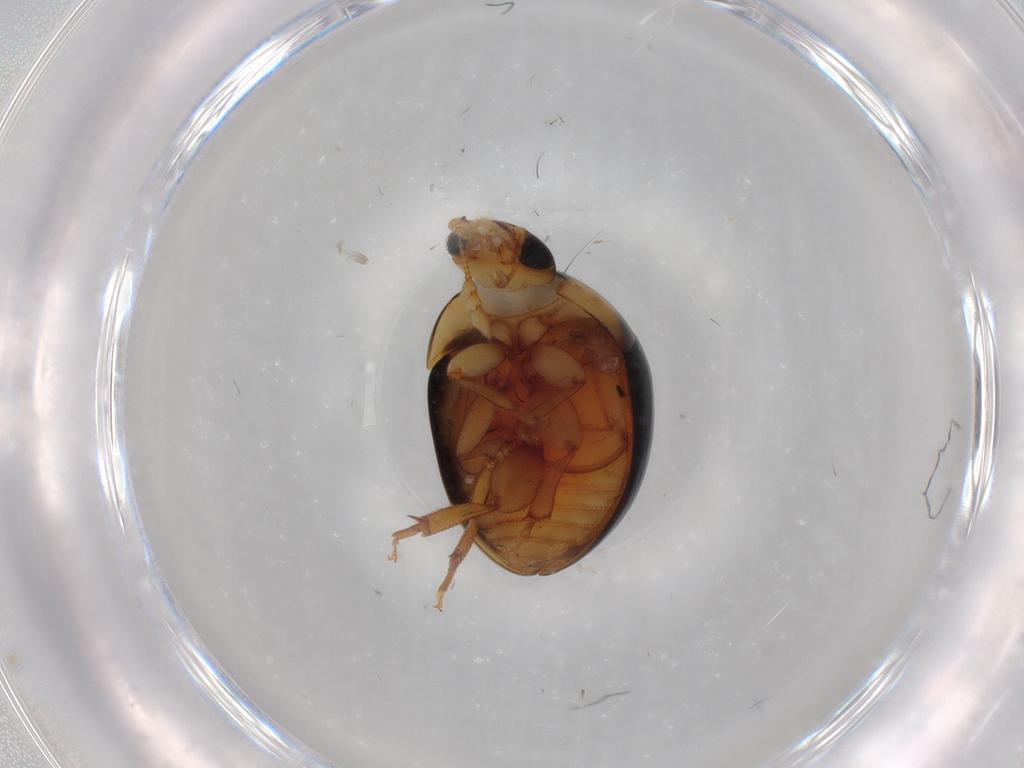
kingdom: Animalia
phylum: Arthropoda
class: Insecta
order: Coleoptera
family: Phalacridae
